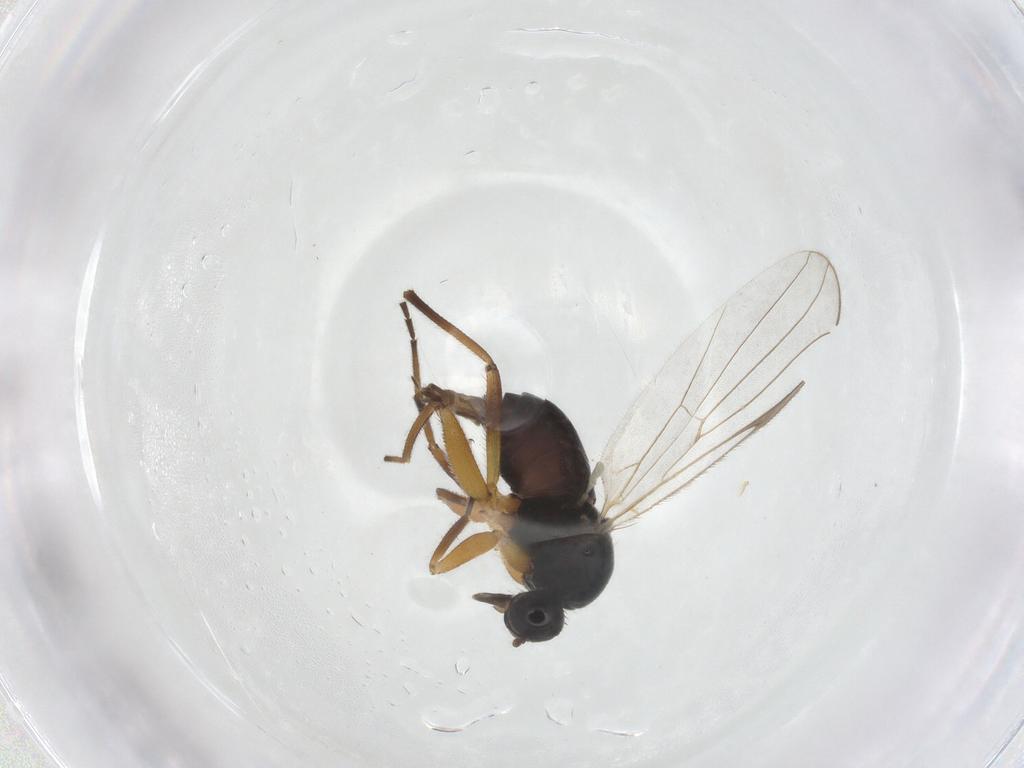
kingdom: Animalia
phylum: Arthropoda
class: Insecta
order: Diptera
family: Hybotidae
